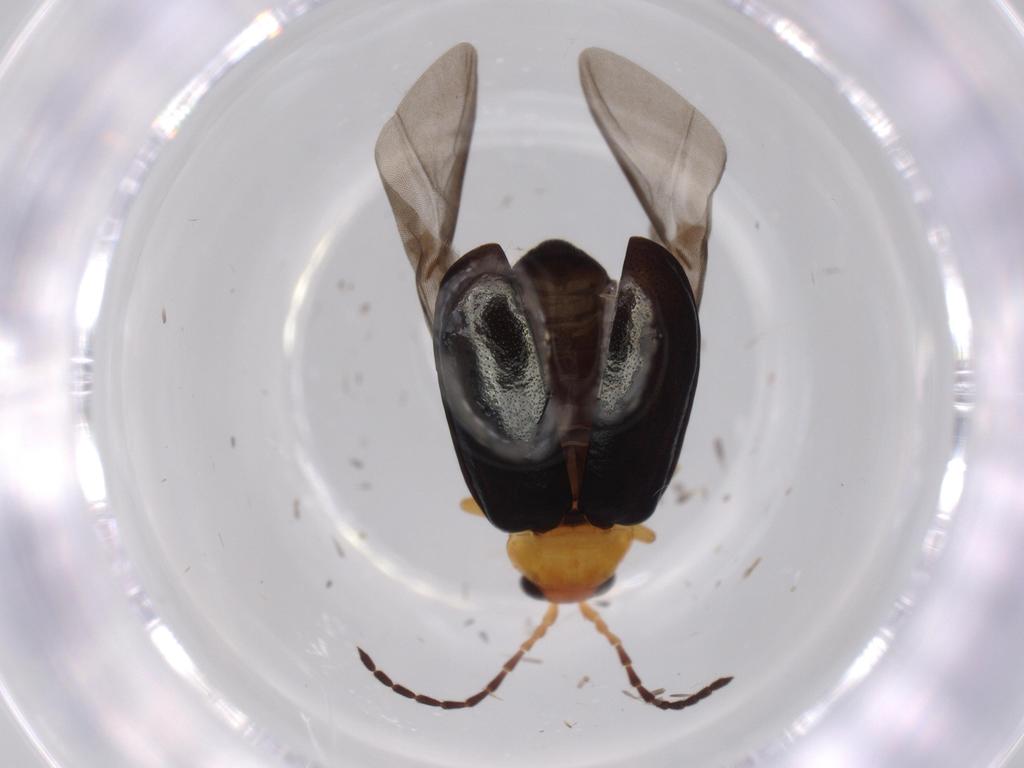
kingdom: Animalia
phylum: Arthropoda
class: Insecta
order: Coleoptera
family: Chrysomelidae
